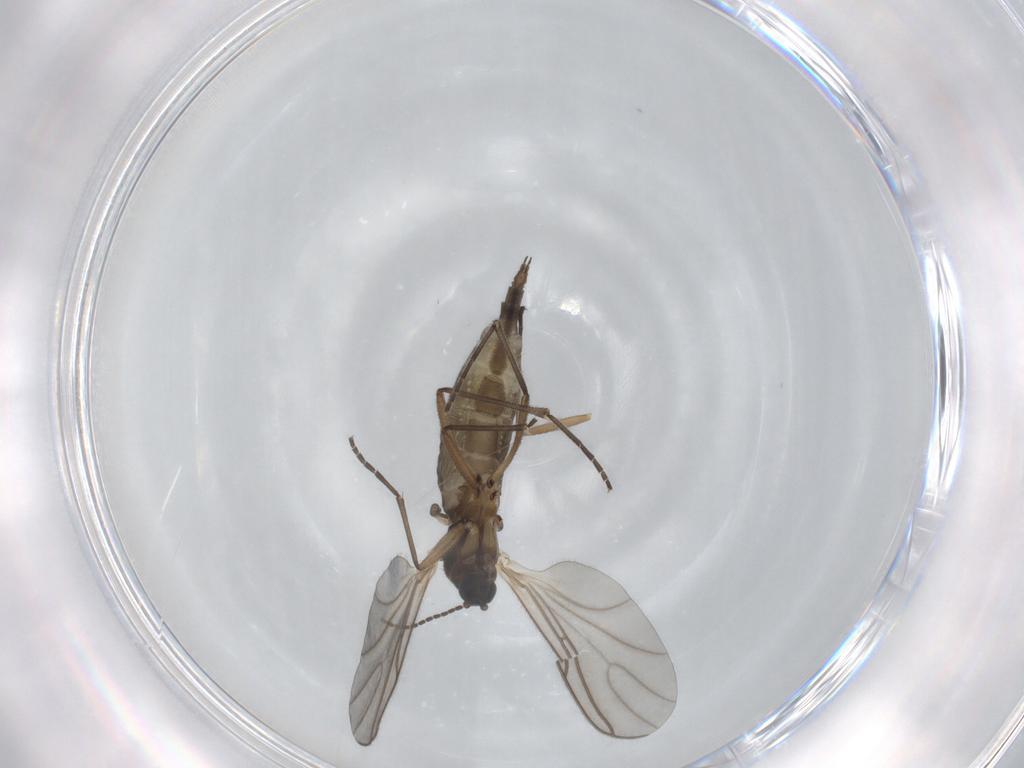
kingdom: Animalia
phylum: Arthropoda
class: Insecta
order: Diptera
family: Sciaridae
